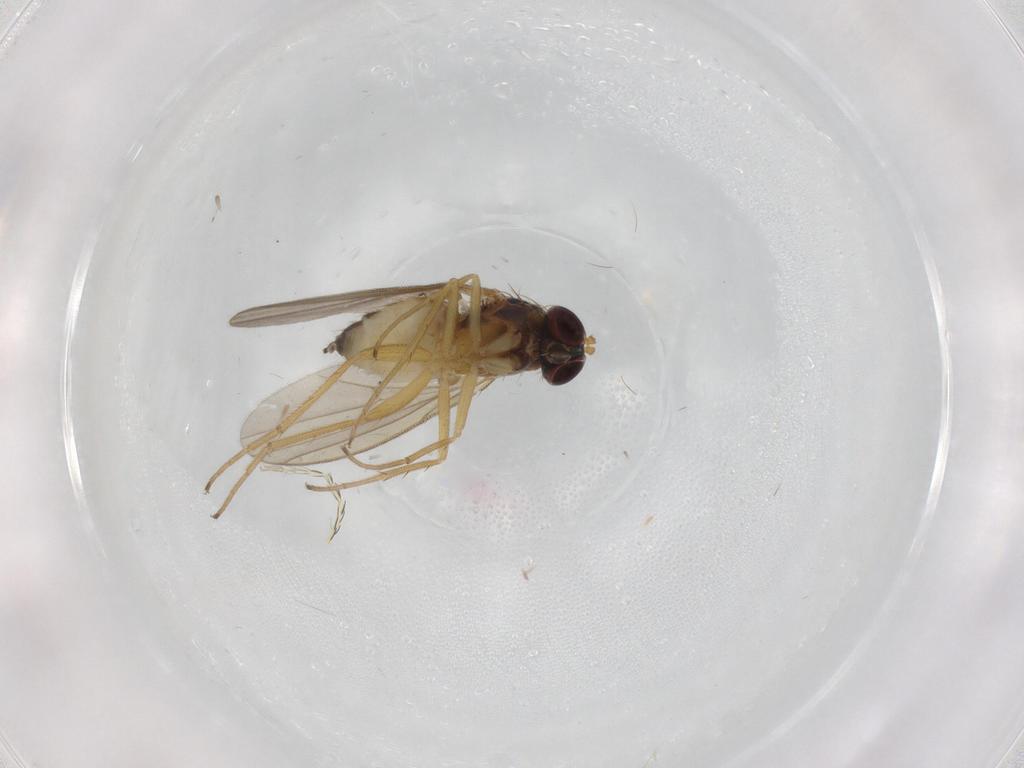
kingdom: Animalia
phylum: Arthropoda
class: Insecta
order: Diptera
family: Dolichopodidae
